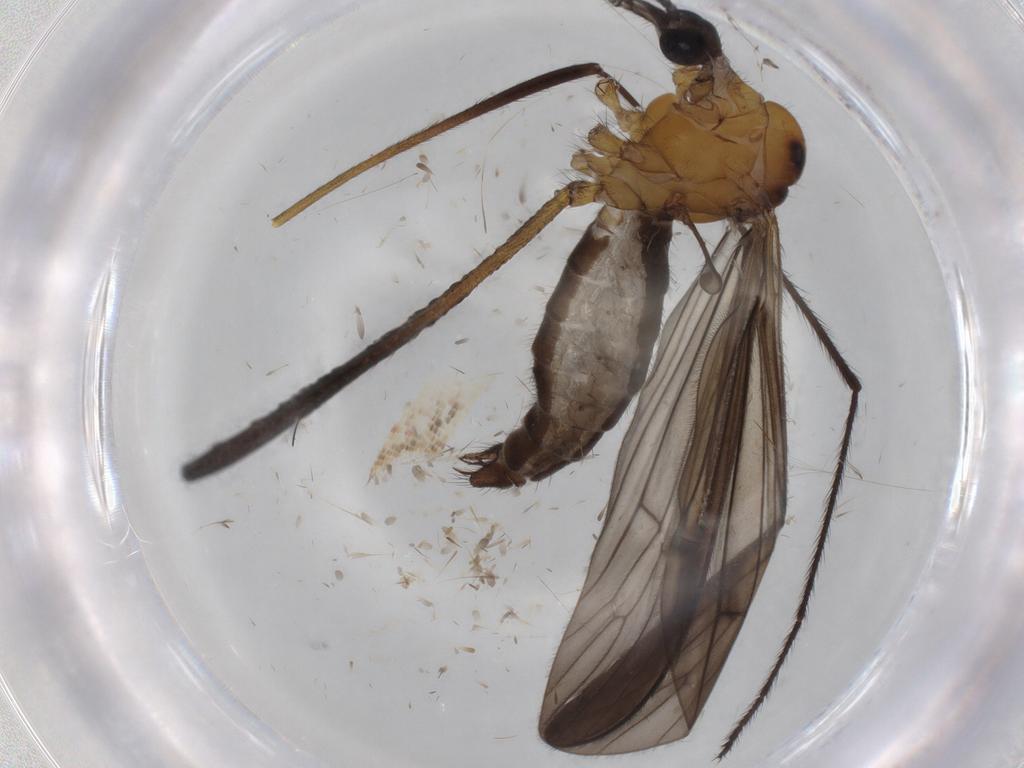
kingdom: Animalia
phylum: Arthropoda
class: Insecta
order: Diptera
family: Limoniidae
